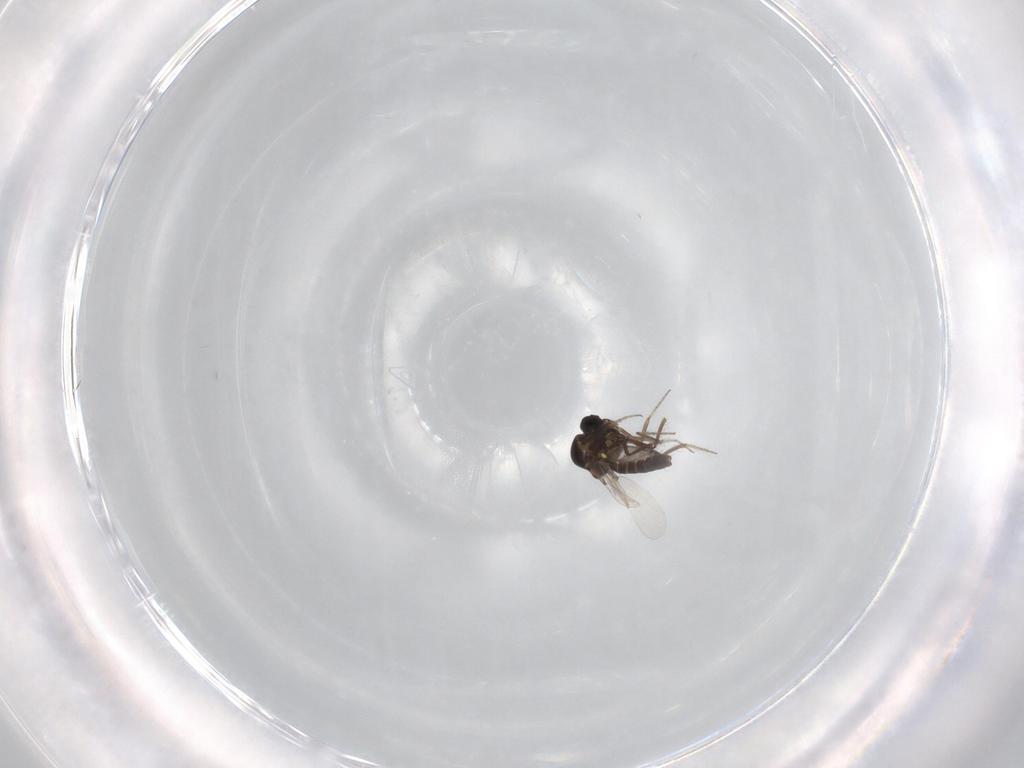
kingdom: Animalia
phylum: Arthropoda
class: Insecta
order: Diptera
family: Ceratopogonidae
